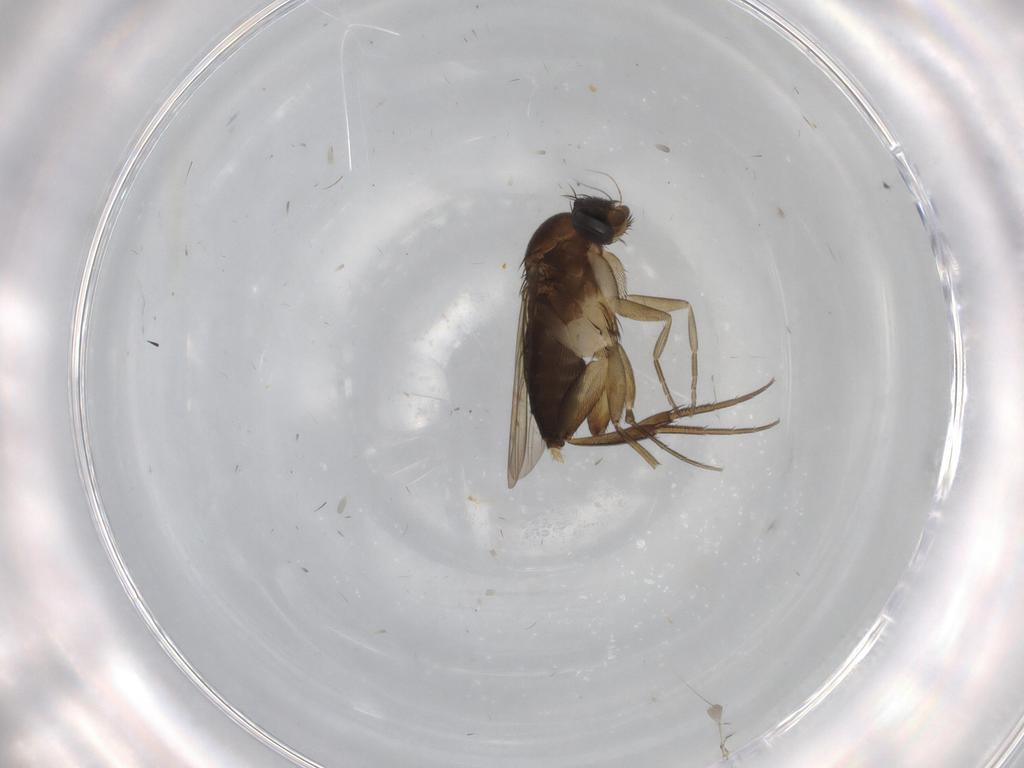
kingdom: Animalia
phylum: Arthropoda
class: Insecta
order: Diptera
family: Phoridae
